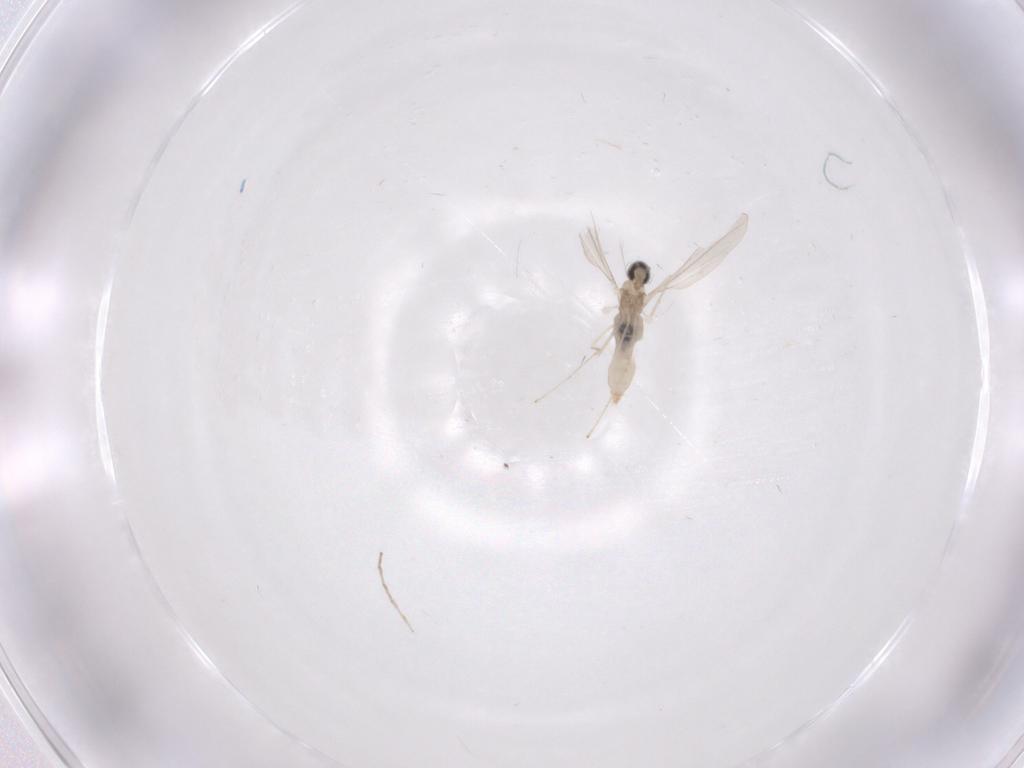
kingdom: Animalia
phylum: Arthropoda
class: Insecta
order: Diptera
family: Chironomidae
